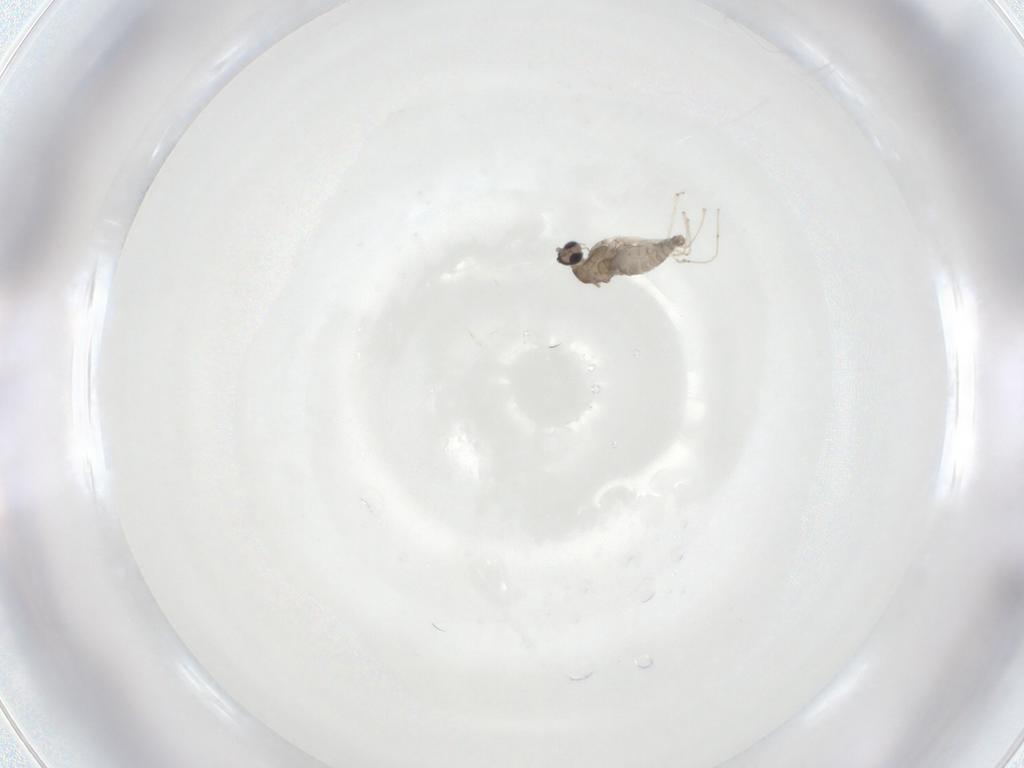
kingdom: Animalia
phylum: Arthropoda
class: Insecta
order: Diptera
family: Cecidomyiidae
